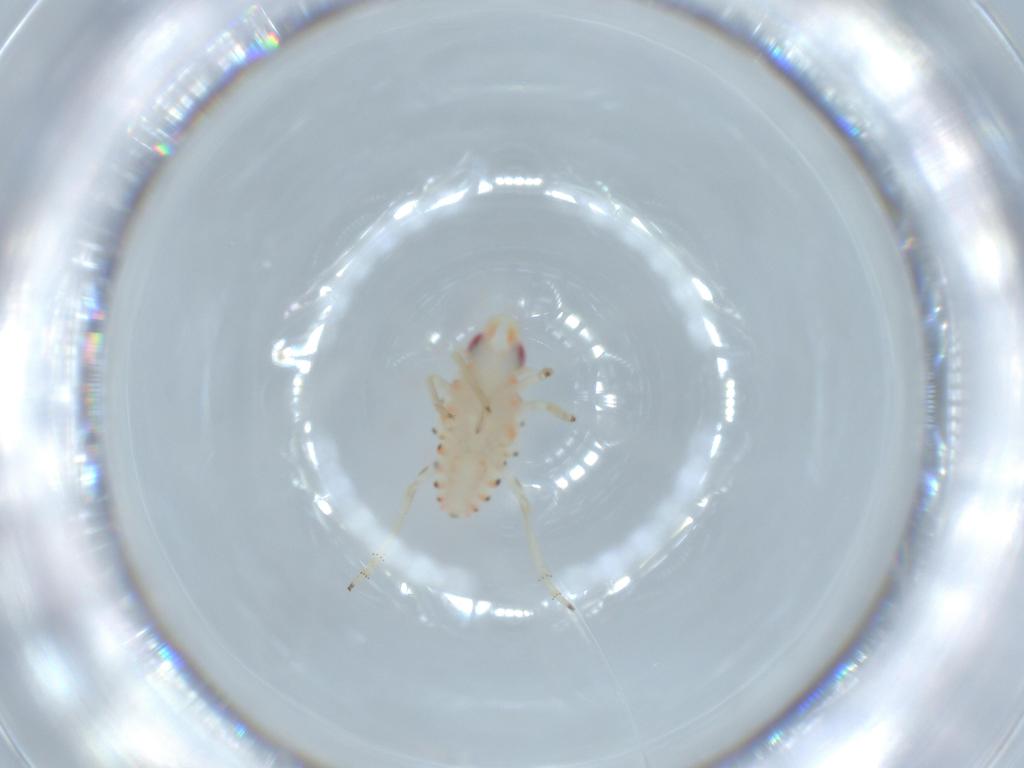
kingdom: Animalia
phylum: Arthropoda
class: Insecta
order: Hemiptera
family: Tropiduchidae
